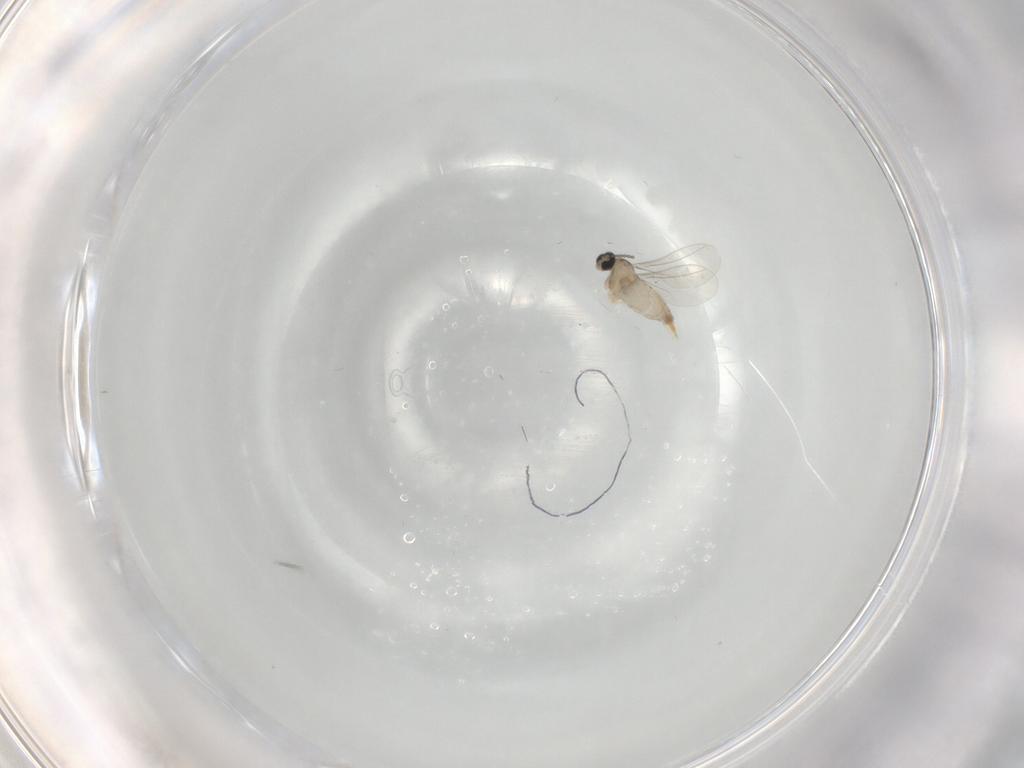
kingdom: Animalia
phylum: Arthropoda
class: Insecta
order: Diptera
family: Cecidomyiidae
